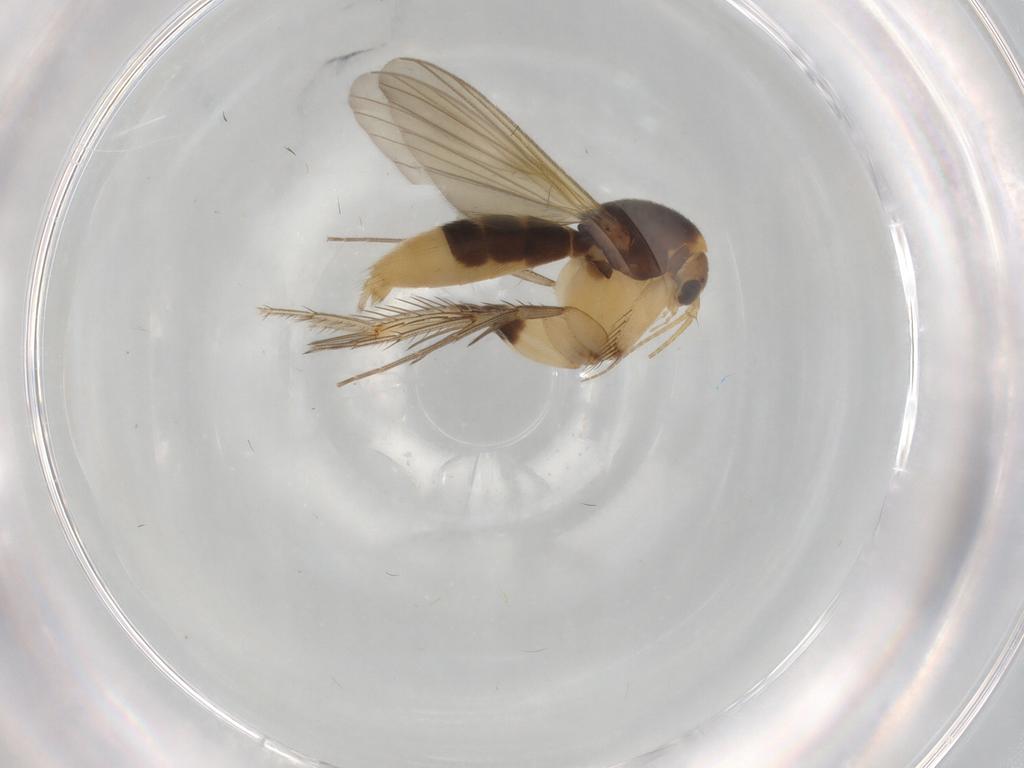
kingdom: Animalia
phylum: Arthropoda
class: Insecta
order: Diptera
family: Mycetophilidae
